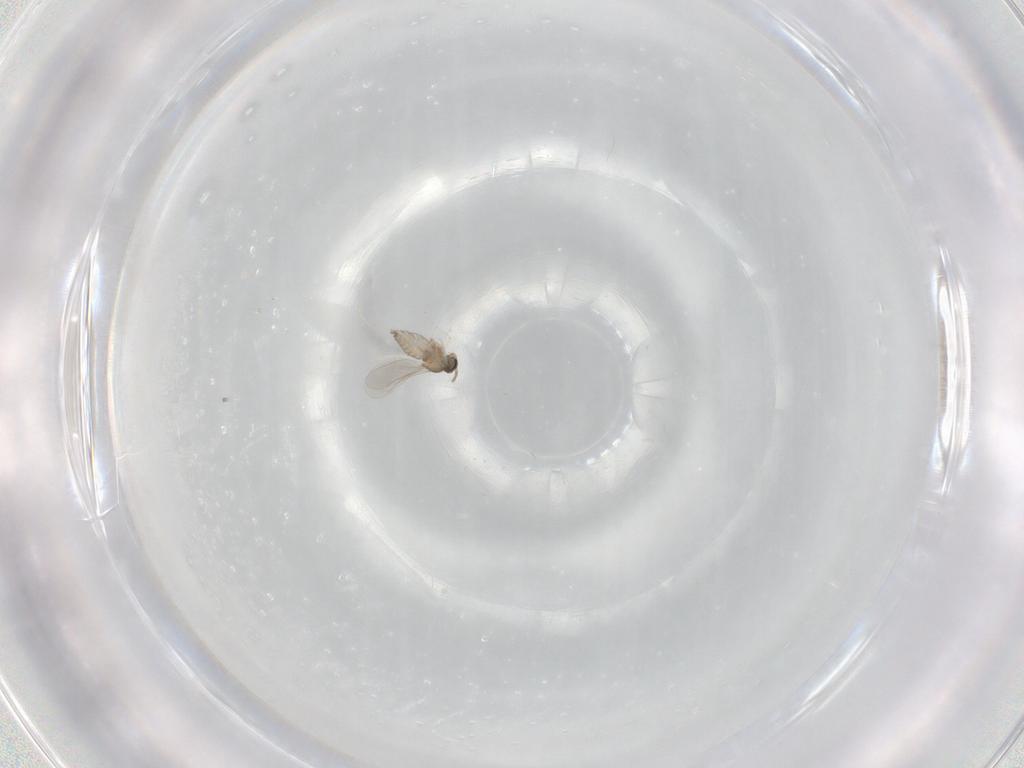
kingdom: Animalia
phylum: Arthropoda
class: Insecta
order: Diptera
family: Cecidomyiidae
